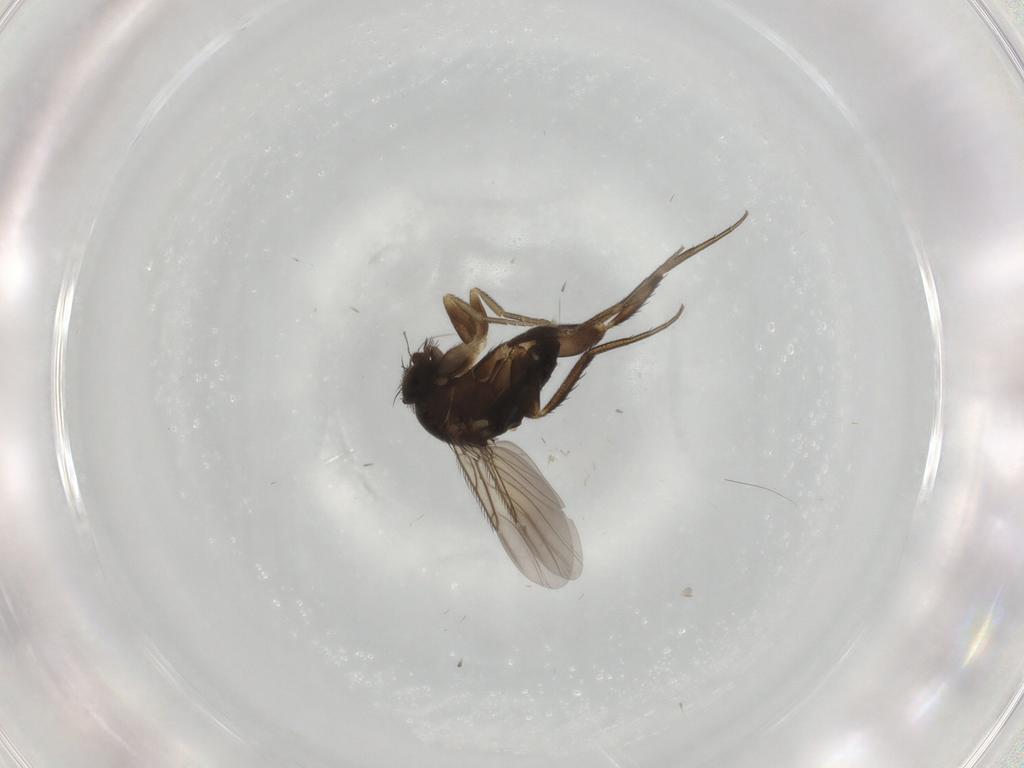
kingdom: Animalia
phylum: Arthropoda
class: Insecta
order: Diptera
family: Phoridae
